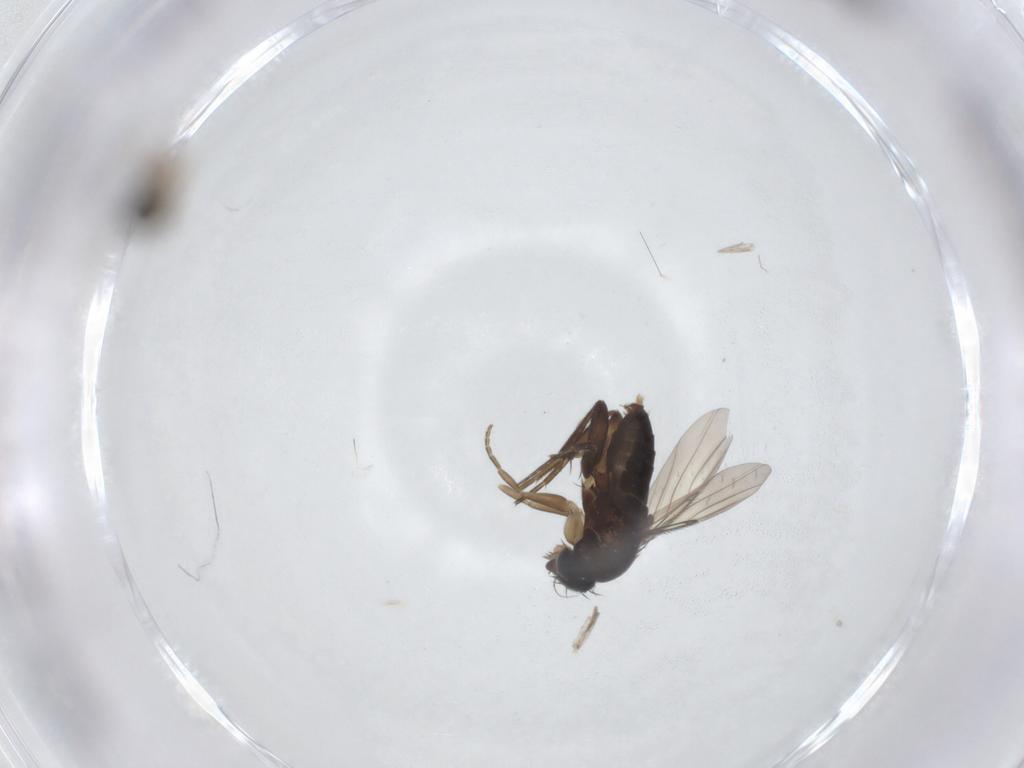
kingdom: Animalia
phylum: Arthropoda
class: Insecta
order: Diptera
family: Cecidomyiidae
